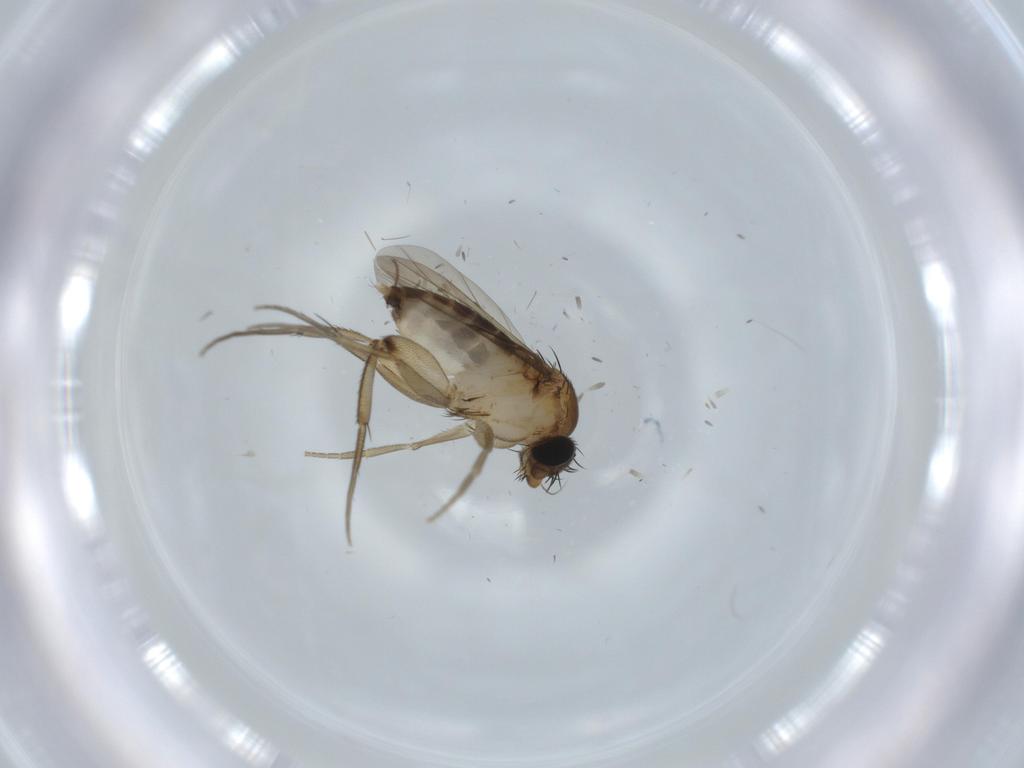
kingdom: Animalia
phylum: Arthropoda
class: Insecta
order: Diptera
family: Phoridae
